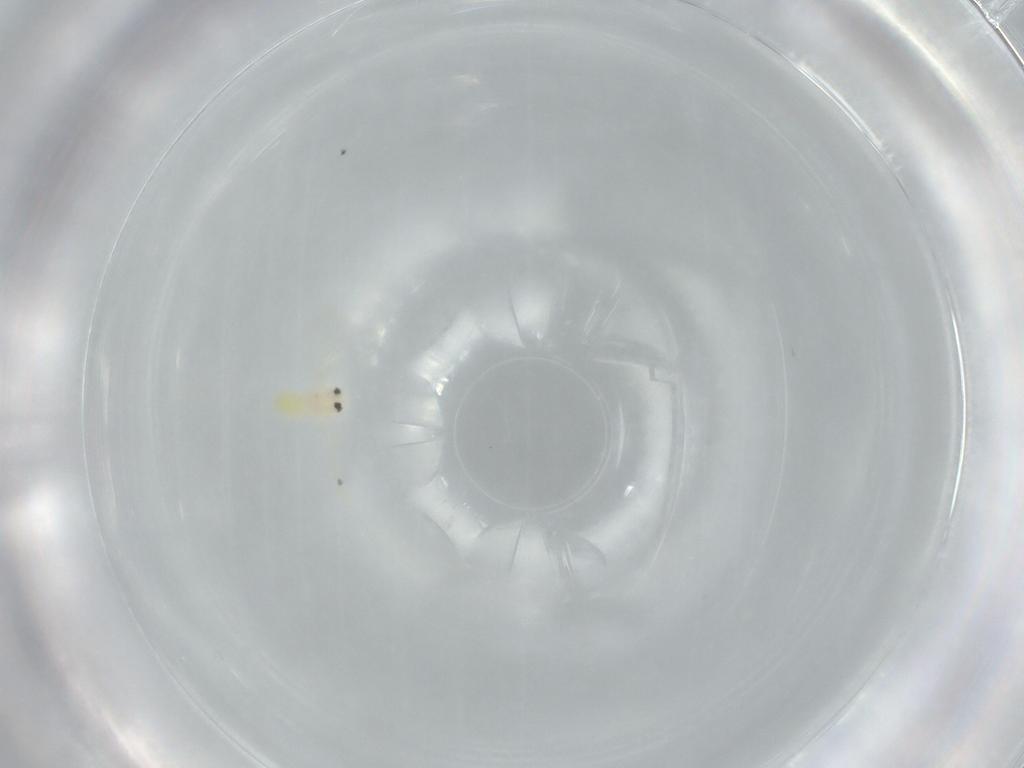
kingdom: Animalia
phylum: Arthropoda
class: Insecta
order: Hemiptera
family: Aleyrodidae
